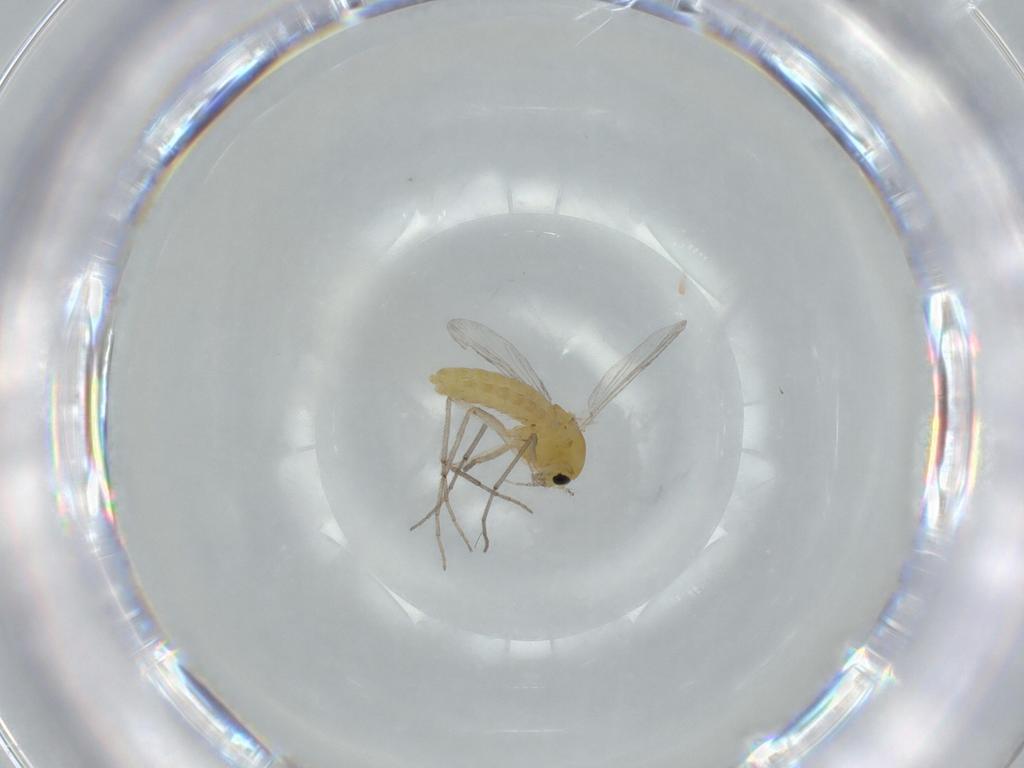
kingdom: Animalia
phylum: Arthropoda
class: Insecta
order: Diptera
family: Chironomidae
